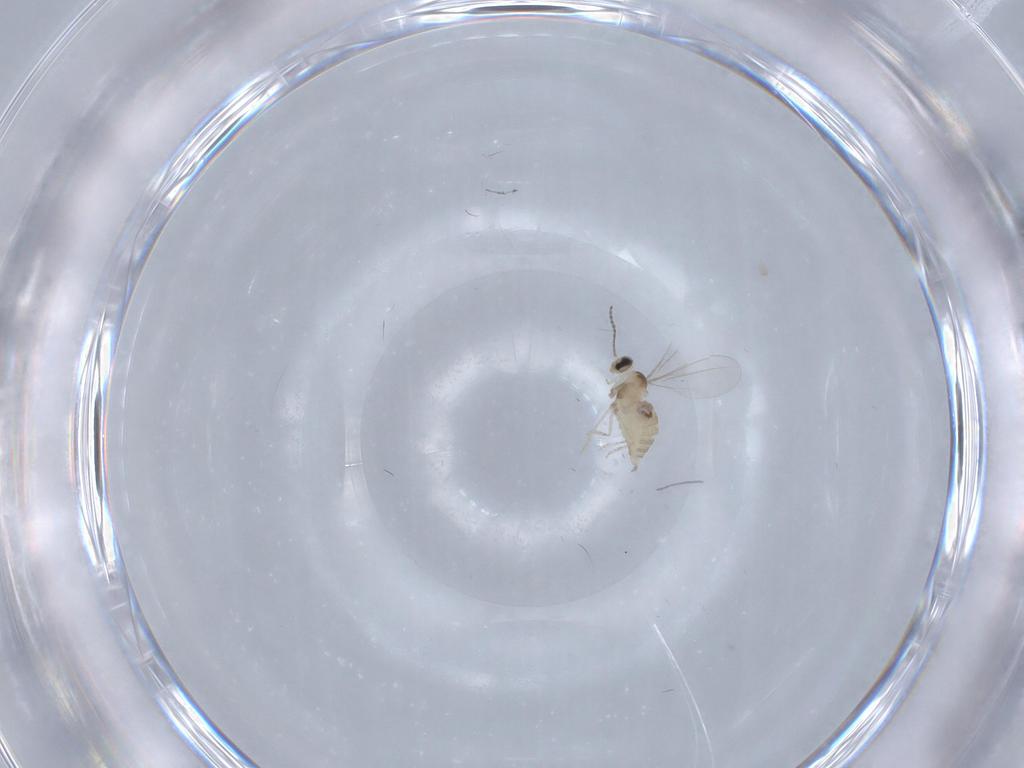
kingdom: Animalia
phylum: Arthropoda
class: Insecta
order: Diptera
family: Cecidomyiidae
